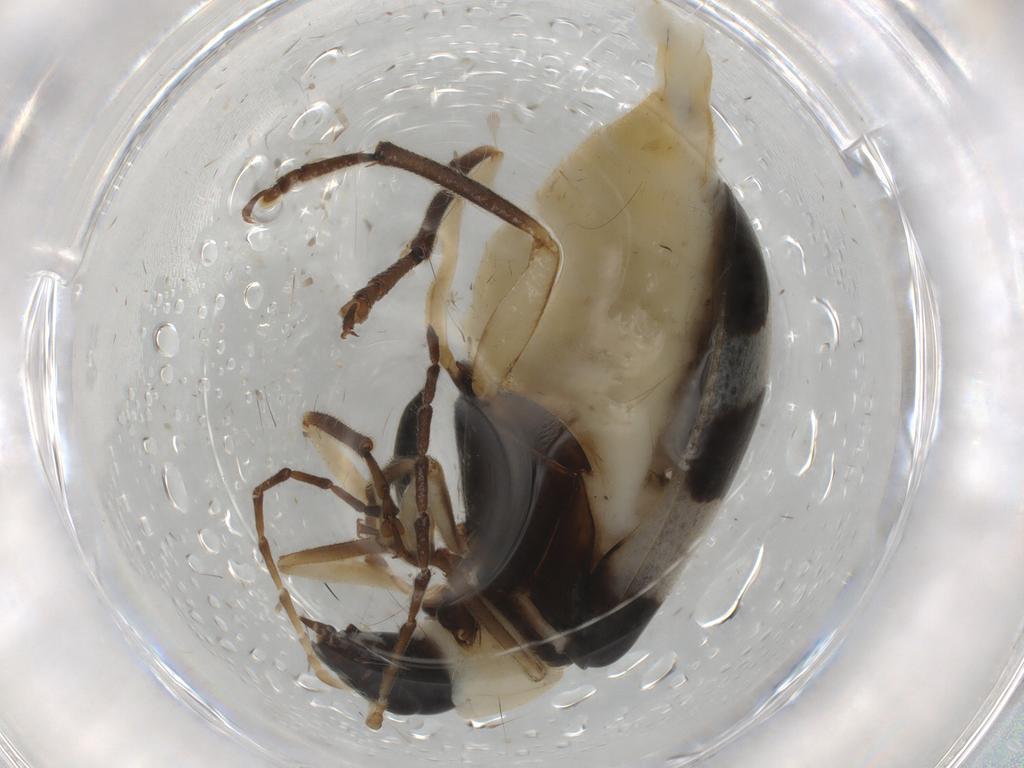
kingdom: Animalia
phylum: Arthropoda
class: Insecta
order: Coleoptera
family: Chrysomelidae
